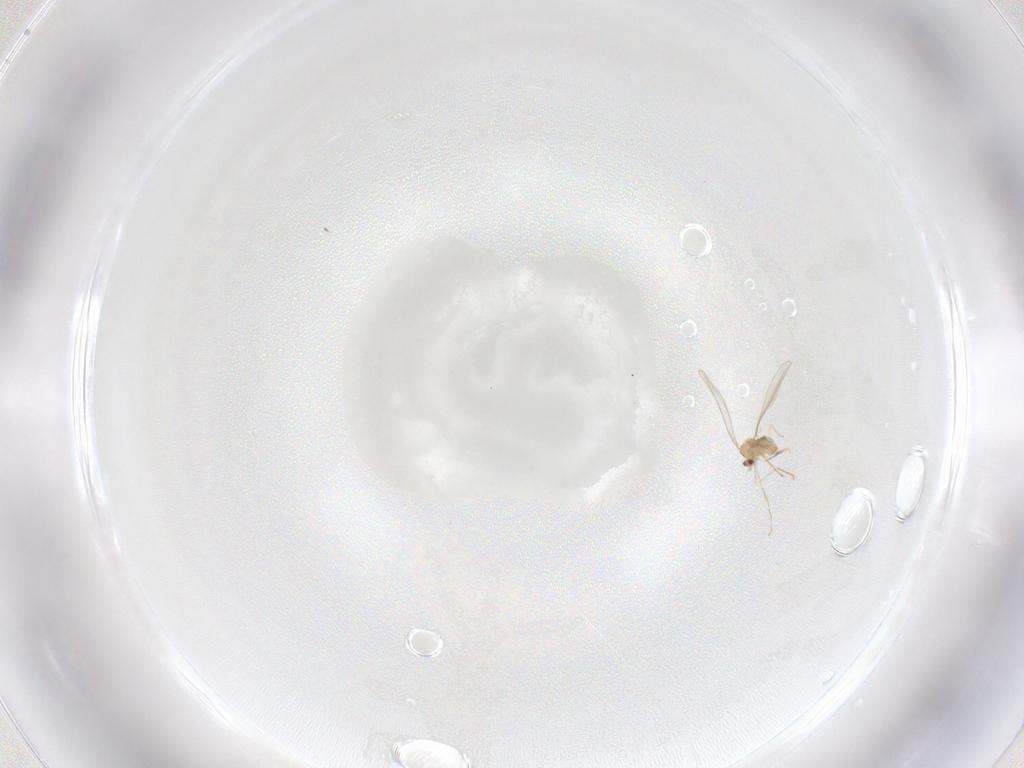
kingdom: Animalia
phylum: Arthropoda
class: Insecta
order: Diptera
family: Cecidomyiidae
